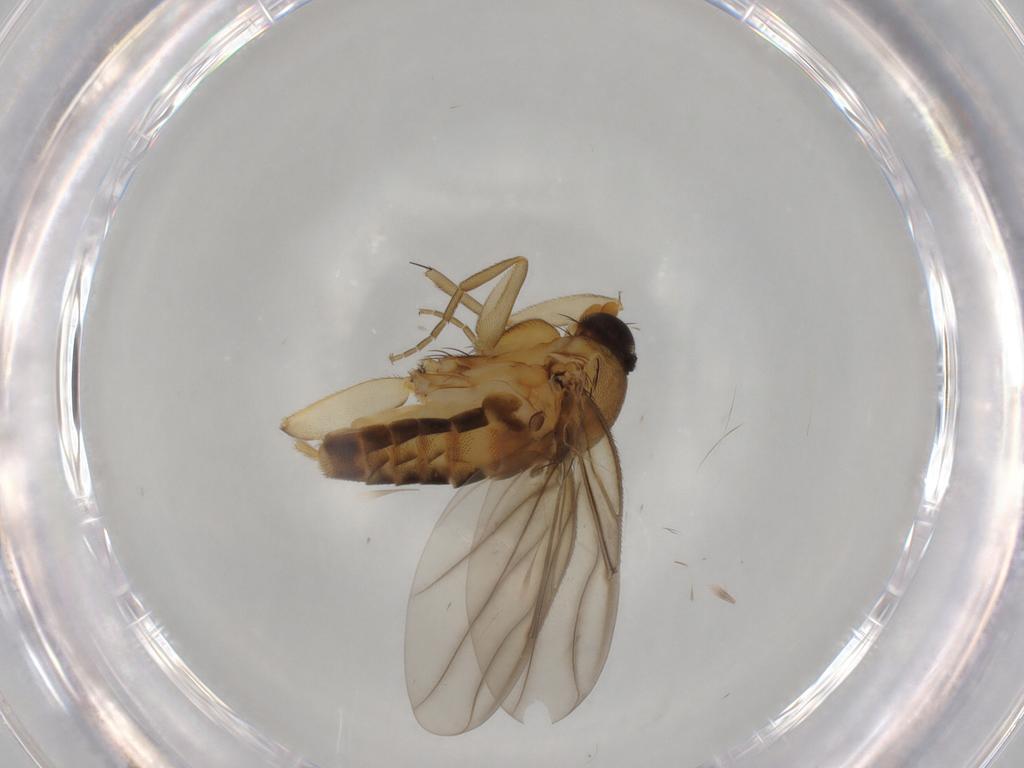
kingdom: Animalia
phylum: Arthropoda
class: Insecta
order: Diptera
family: Phoridae
